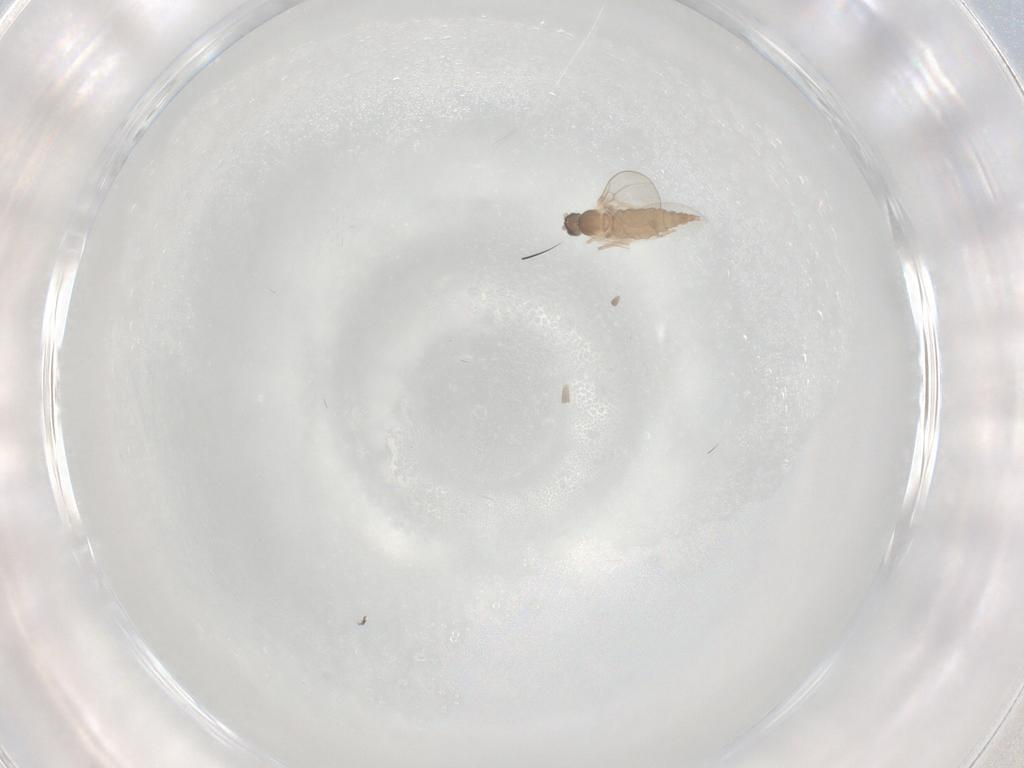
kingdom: Animalia
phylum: Arthropoda
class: Insecta
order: Diptera
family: Cecidomyiidae
